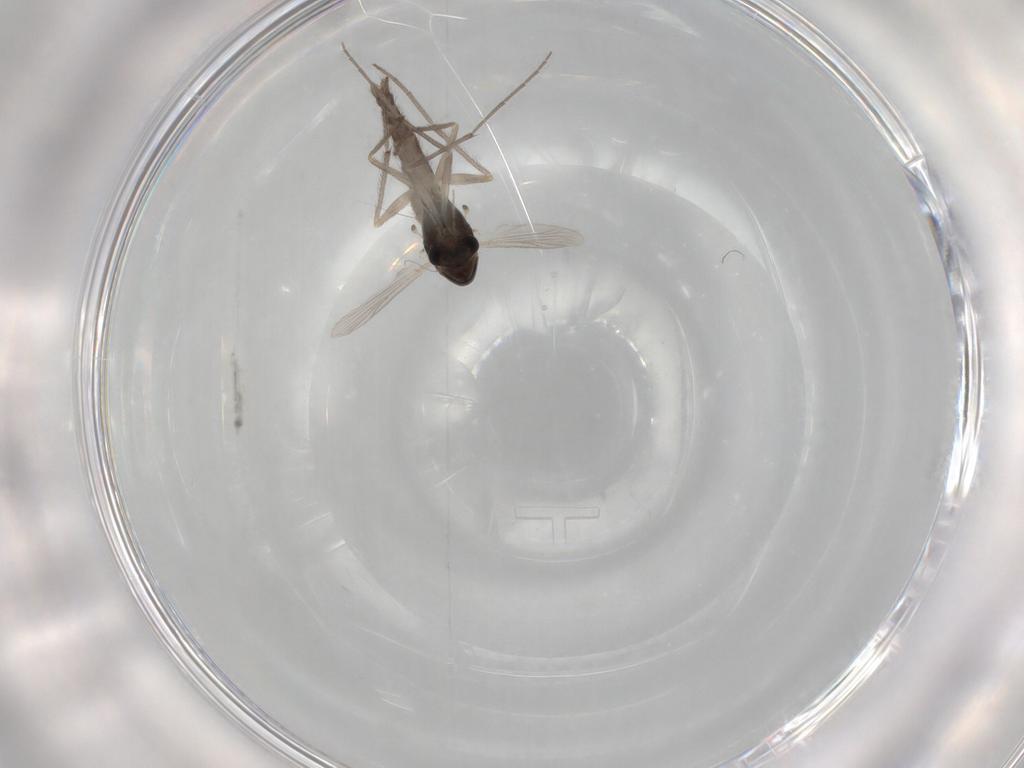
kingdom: Animalia
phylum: Arthropoda
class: Insecta
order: Diptera
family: Chironomidae
